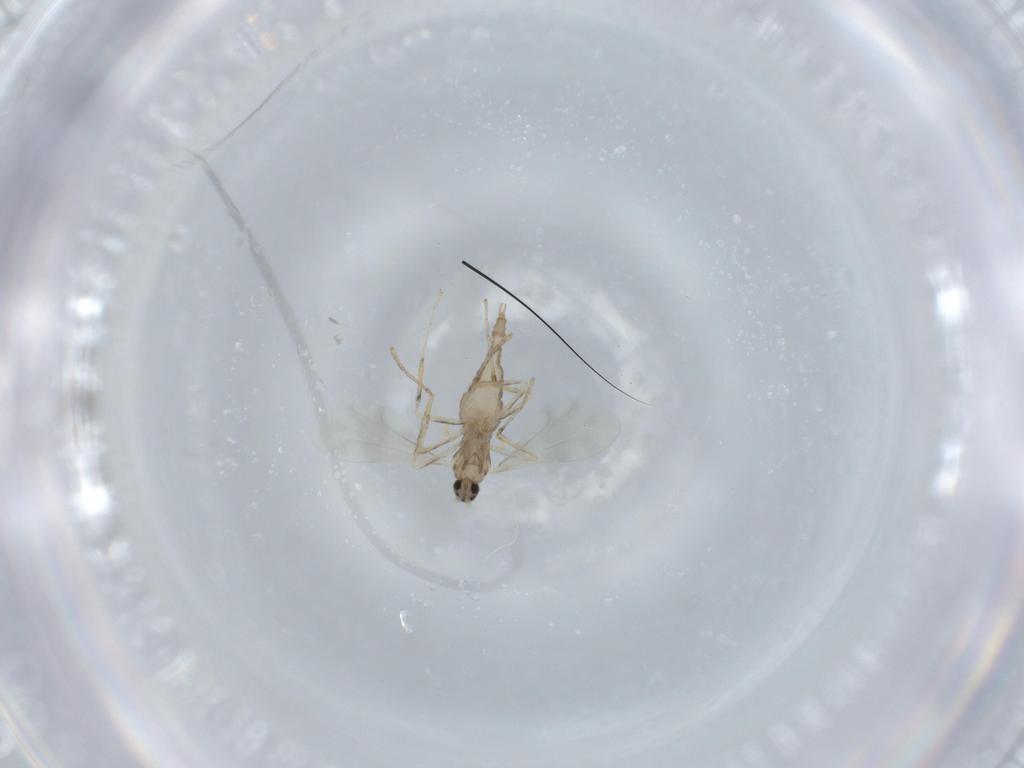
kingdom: Animalia
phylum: Arthropoda
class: Insecta
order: Diptera
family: Cecidomyiidae
